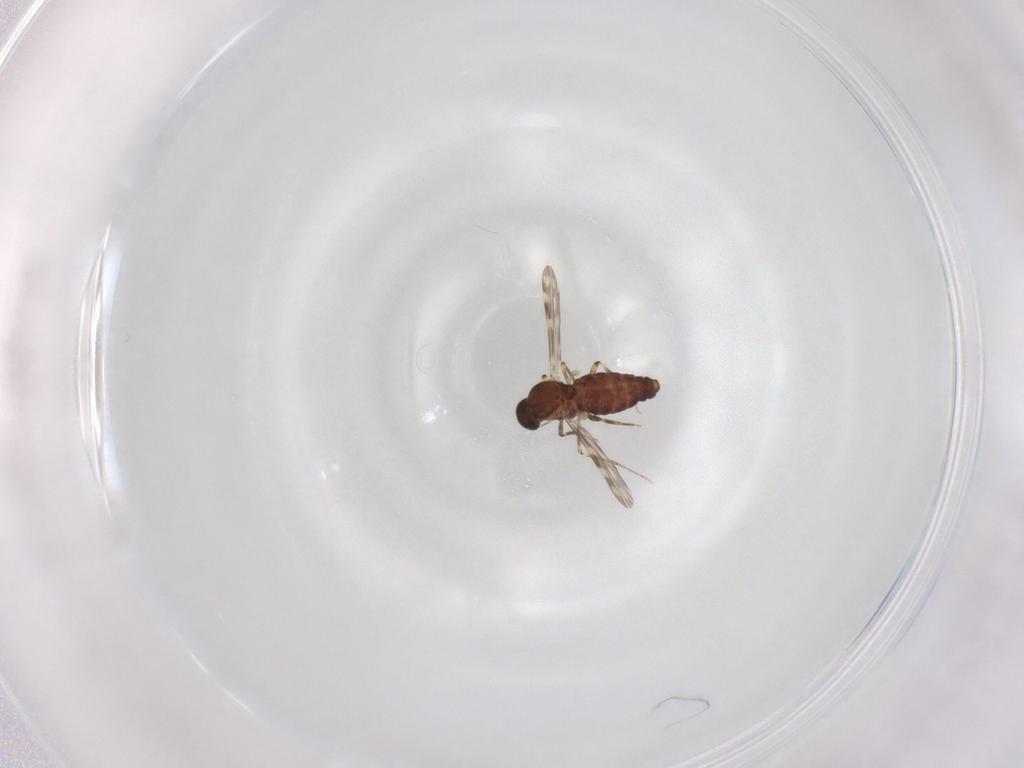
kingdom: Animalia
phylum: Arthropoda
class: Insecta
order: Diptera
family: Cecidomyiidae
